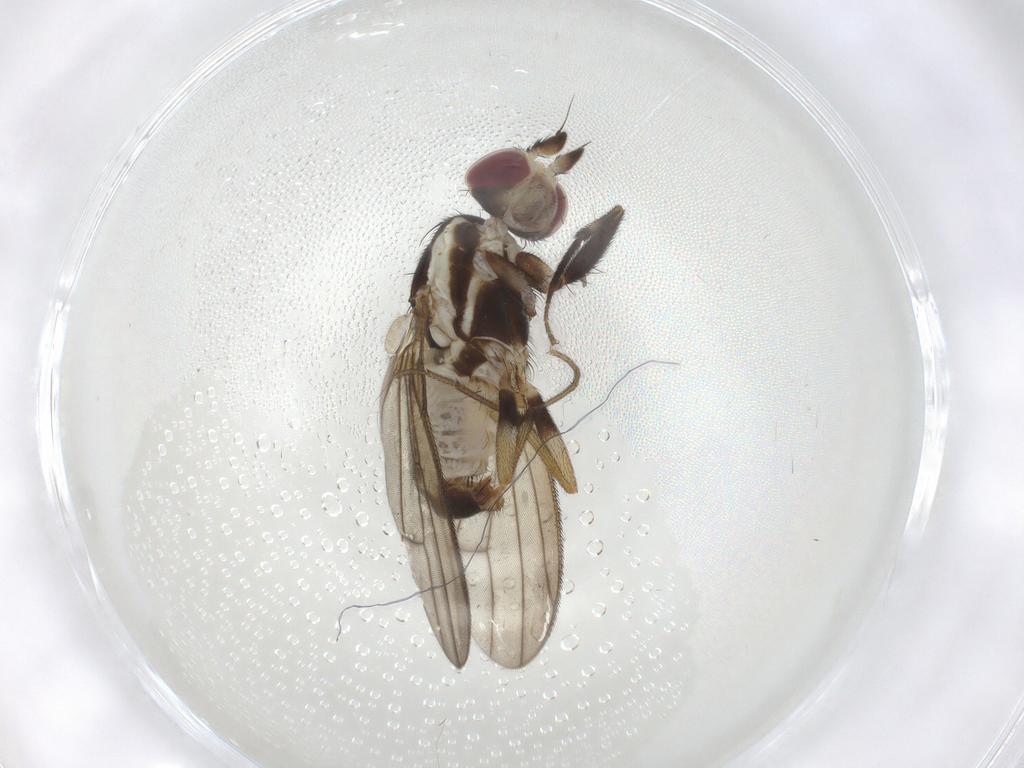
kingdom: Animalia
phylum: Arthropoda
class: Insecta
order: Diptera
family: Pseudopomyzidae
